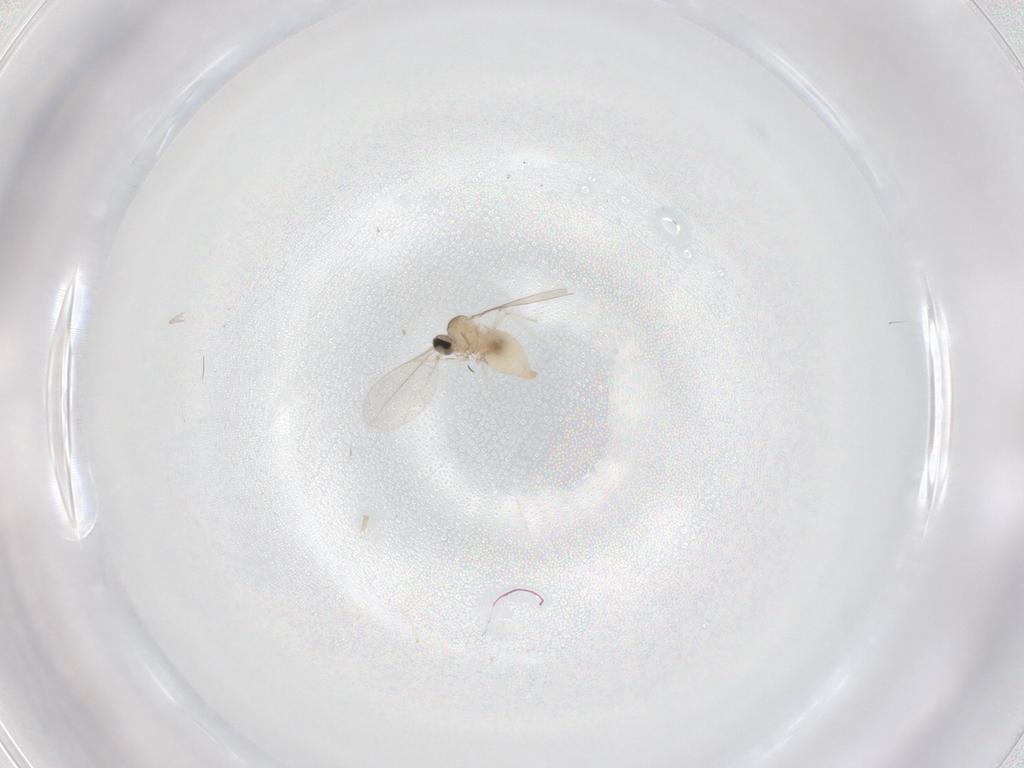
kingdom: Animalia
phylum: Arthropoda
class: Insecta
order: Diptera
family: Cecidomyiidae
